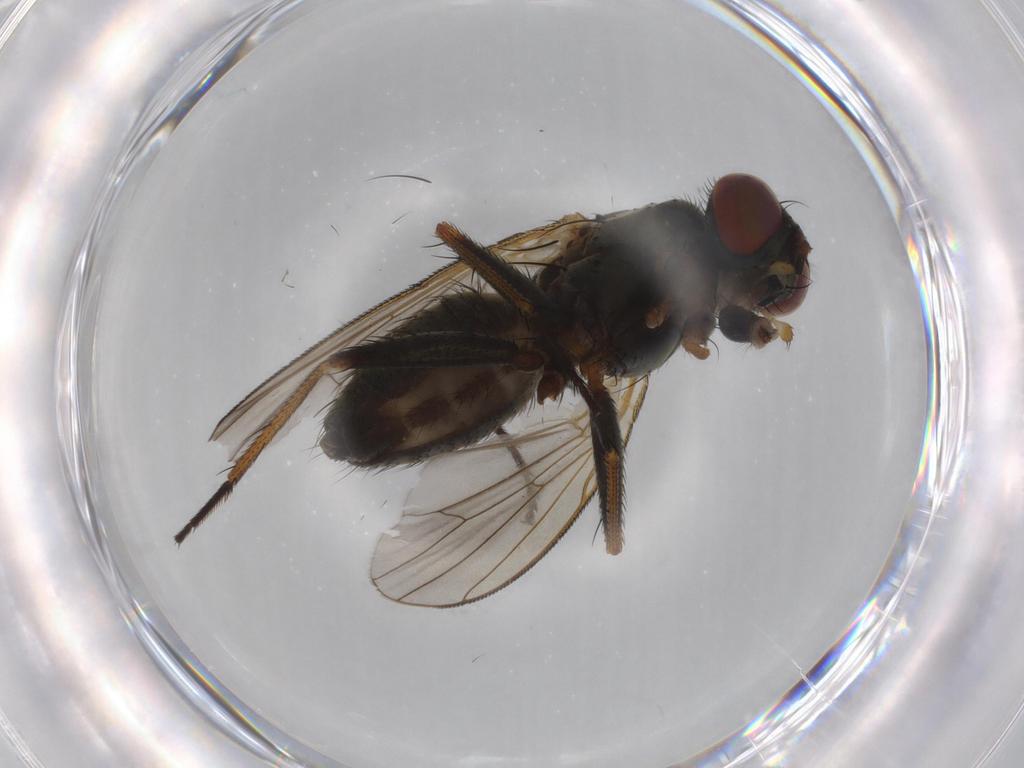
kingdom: Animalia
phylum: Arthropoda
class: Insecta
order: Diptera
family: Muscidae
